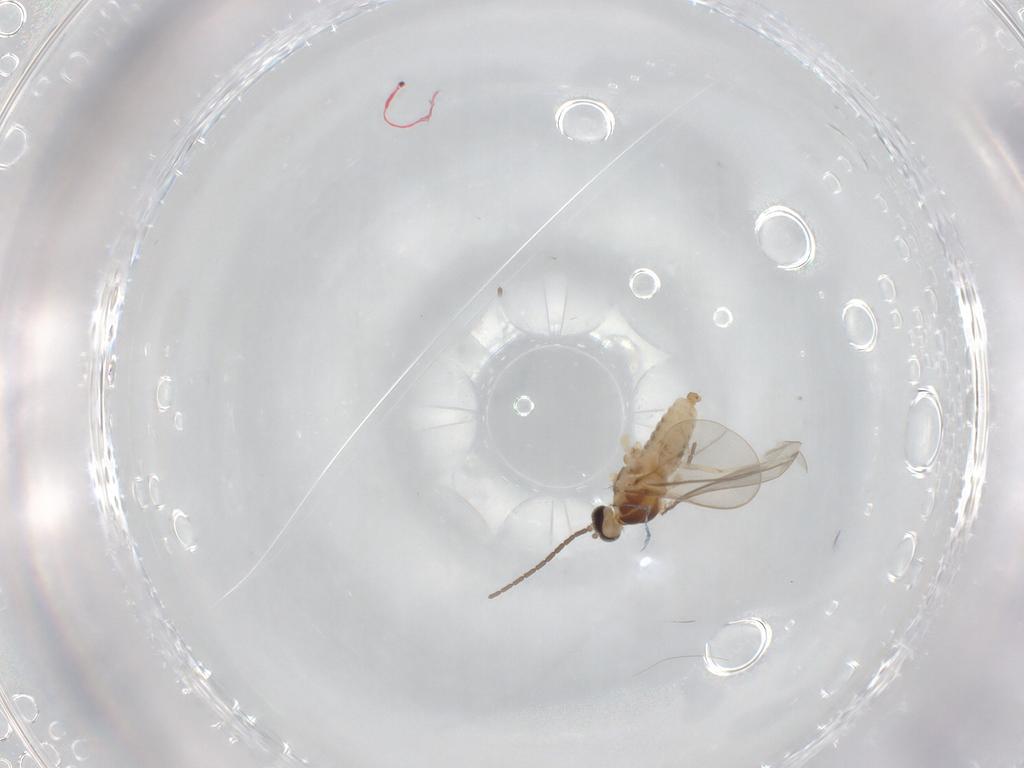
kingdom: Animalia
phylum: Arthropoda
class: Insecta
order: Diptera
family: Cecidomyiidae
